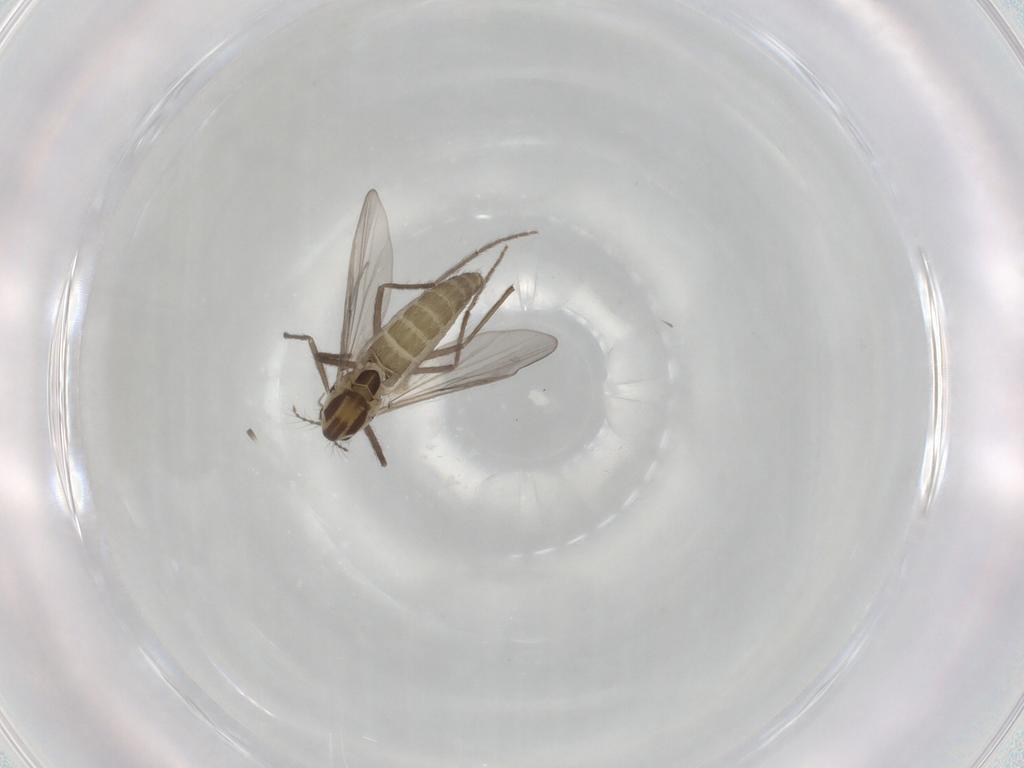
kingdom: Animalia
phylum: Arthropoda
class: Insecta
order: Diptera
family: Chironomidae
